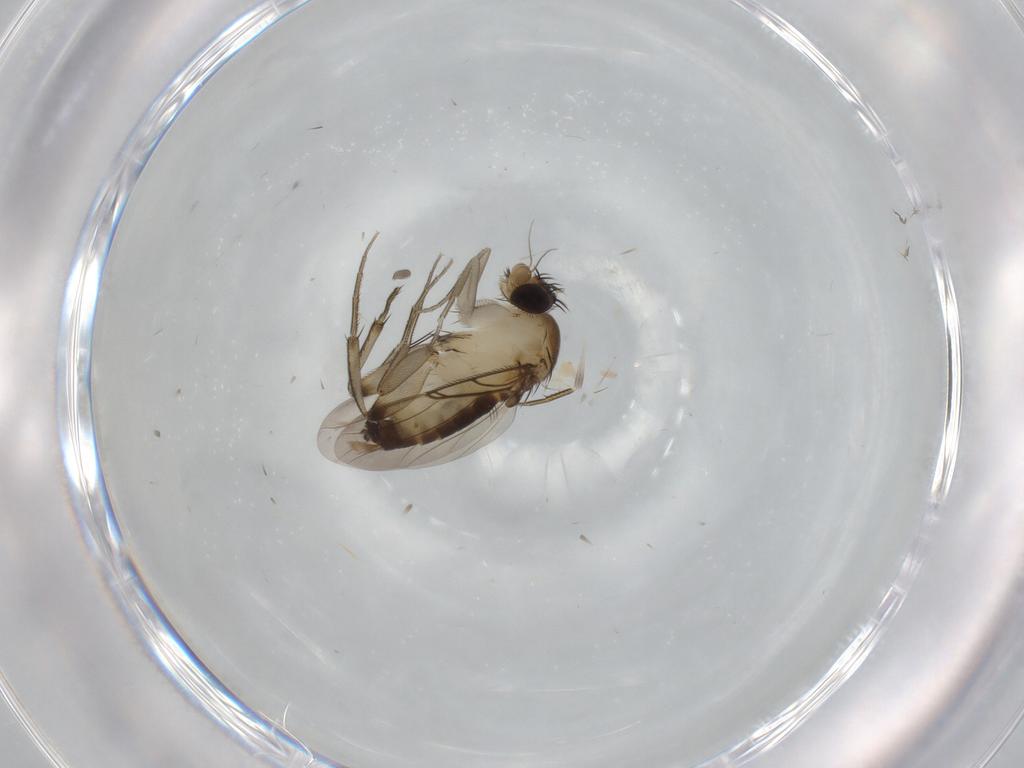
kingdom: Animalia
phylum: Arthropoda
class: Insecta
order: Diptera
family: Phoridae
